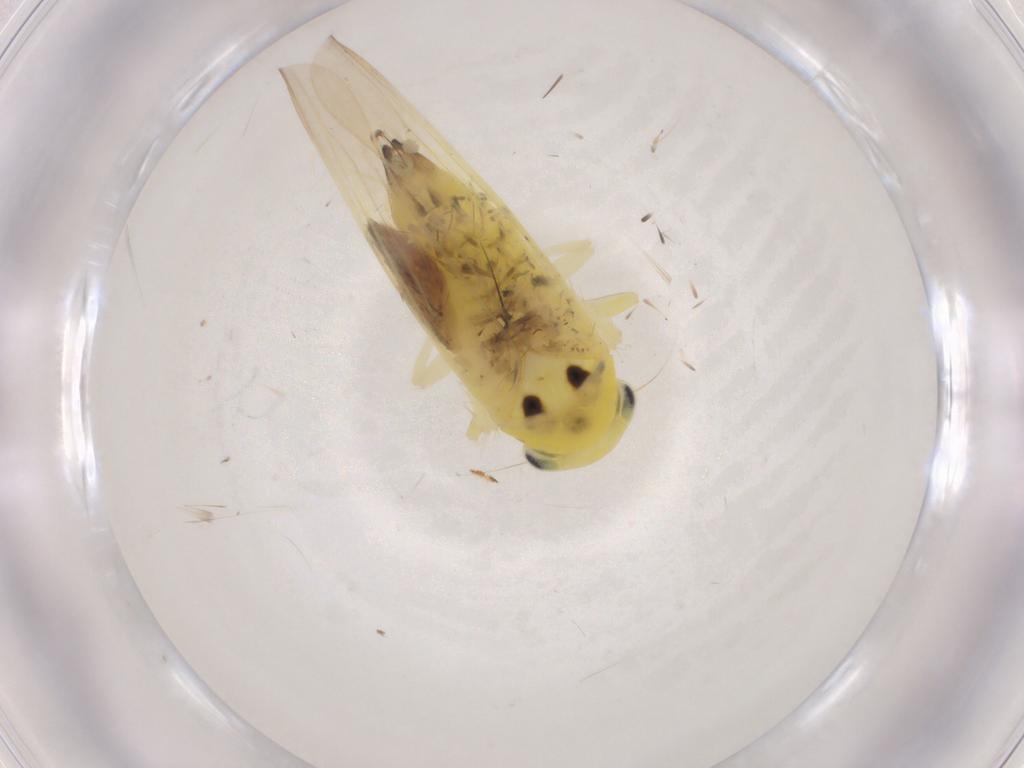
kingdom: Animalia
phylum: Arthropoda
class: Insecta
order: Hemiptera
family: Cicadellidae
